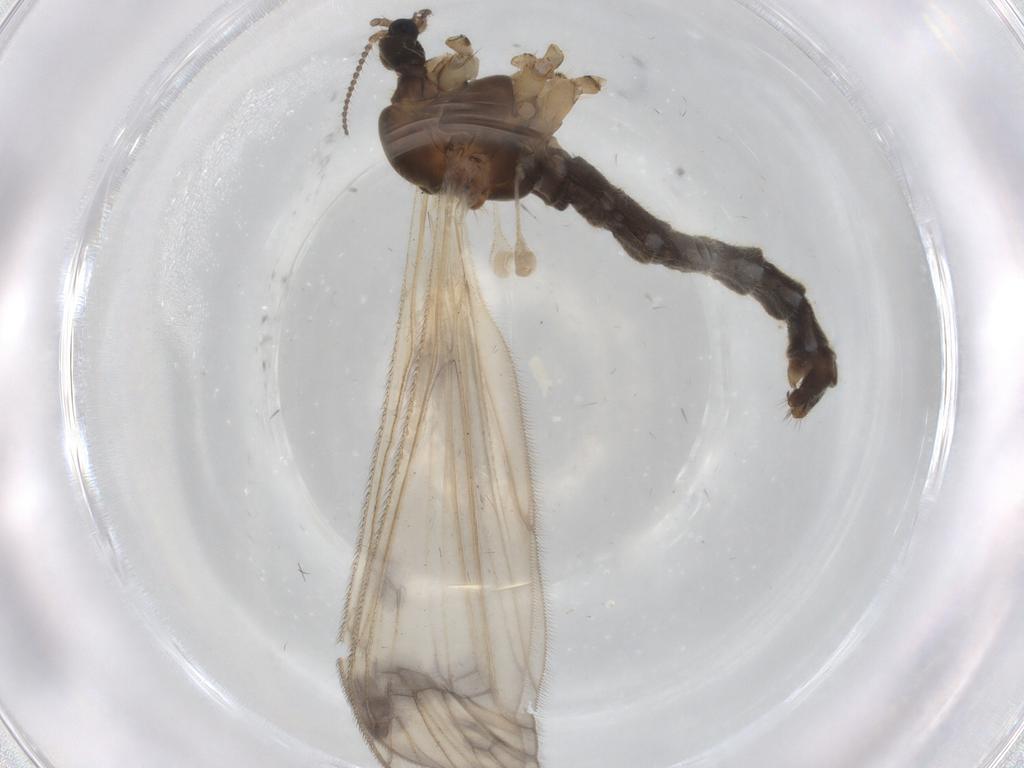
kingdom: Animalia
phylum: Arthropoda
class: Insecta
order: Diptera
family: Limoniidae
